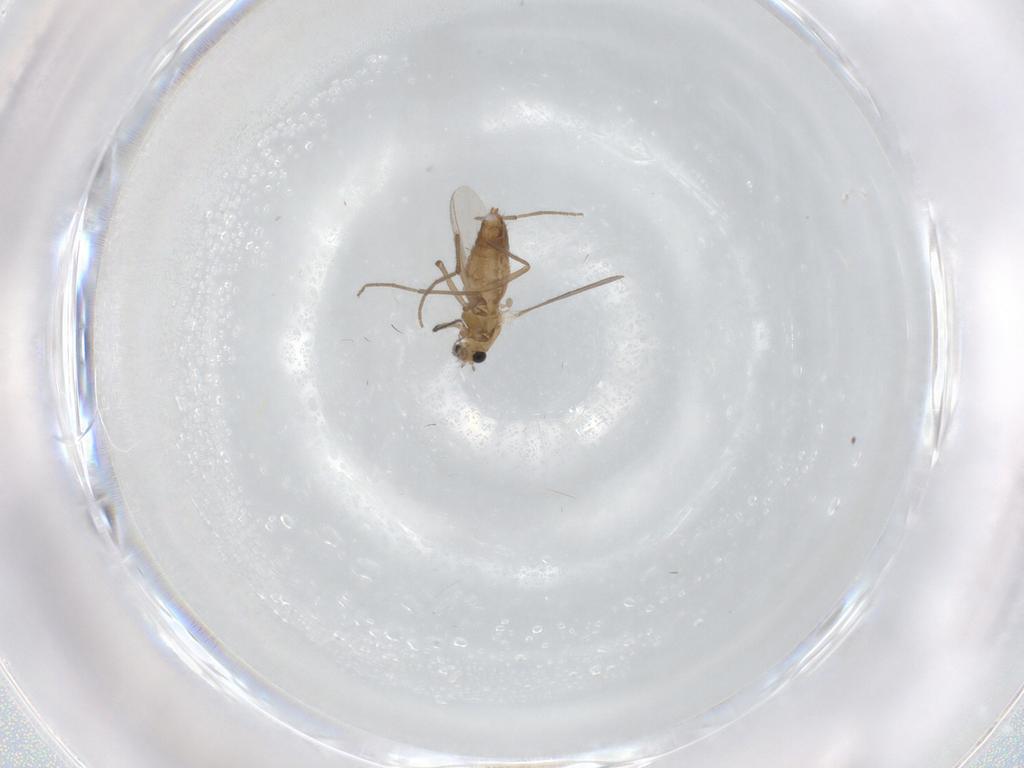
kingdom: Animalia
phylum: Arthropoda
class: Insecta
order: Diptera
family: Chironomidae
